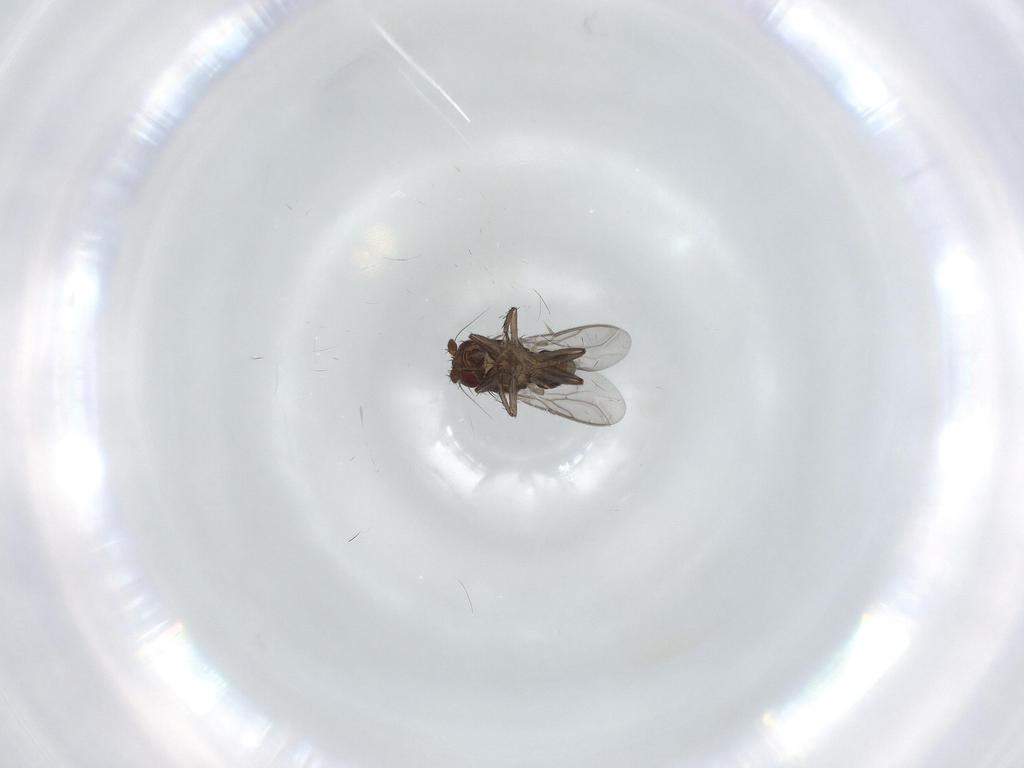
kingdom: Animalia
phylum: Arthropoda
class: Insecta
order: Diptera
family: Sphaeroceridae
